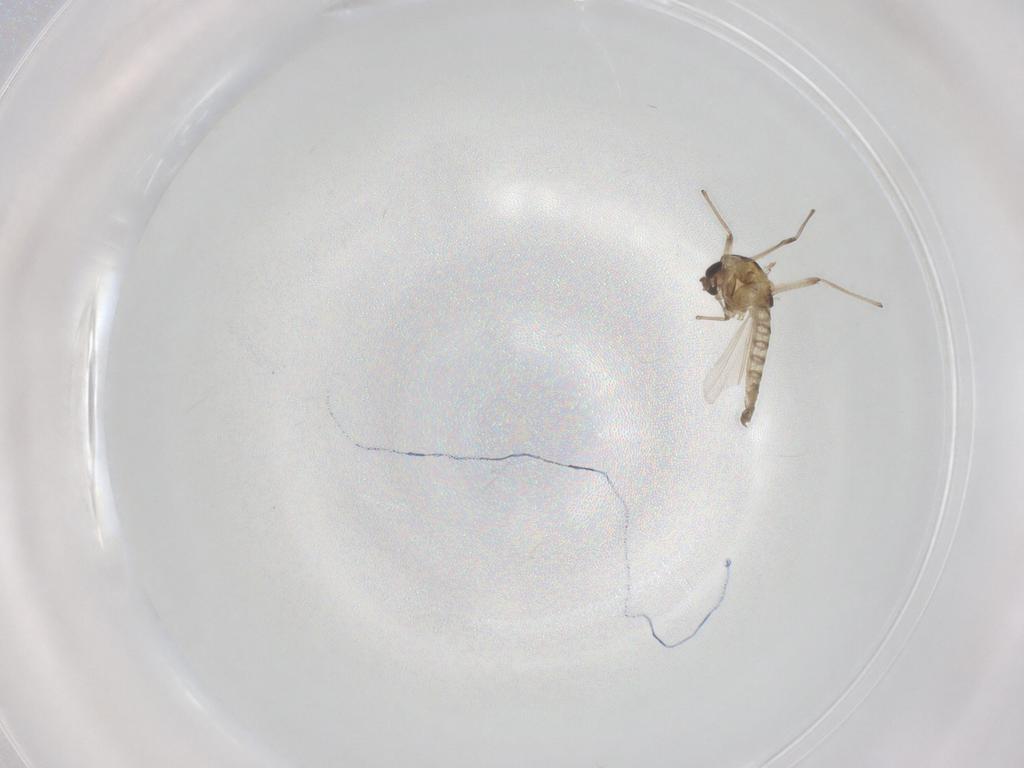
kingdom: Animalia
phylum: Arthropoda
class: Insecta
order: Diptera
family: Chironomidae
